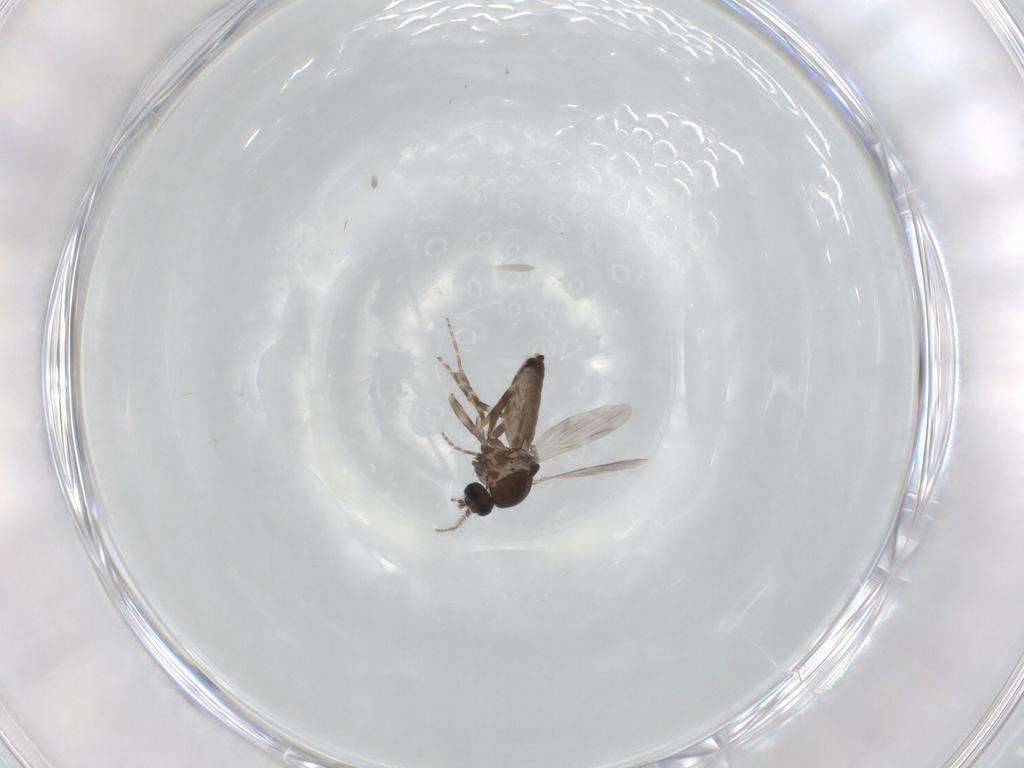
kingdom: Animalia
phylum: Arthropoda
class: Insecta
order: Diptera
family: Ceratopogonidae
